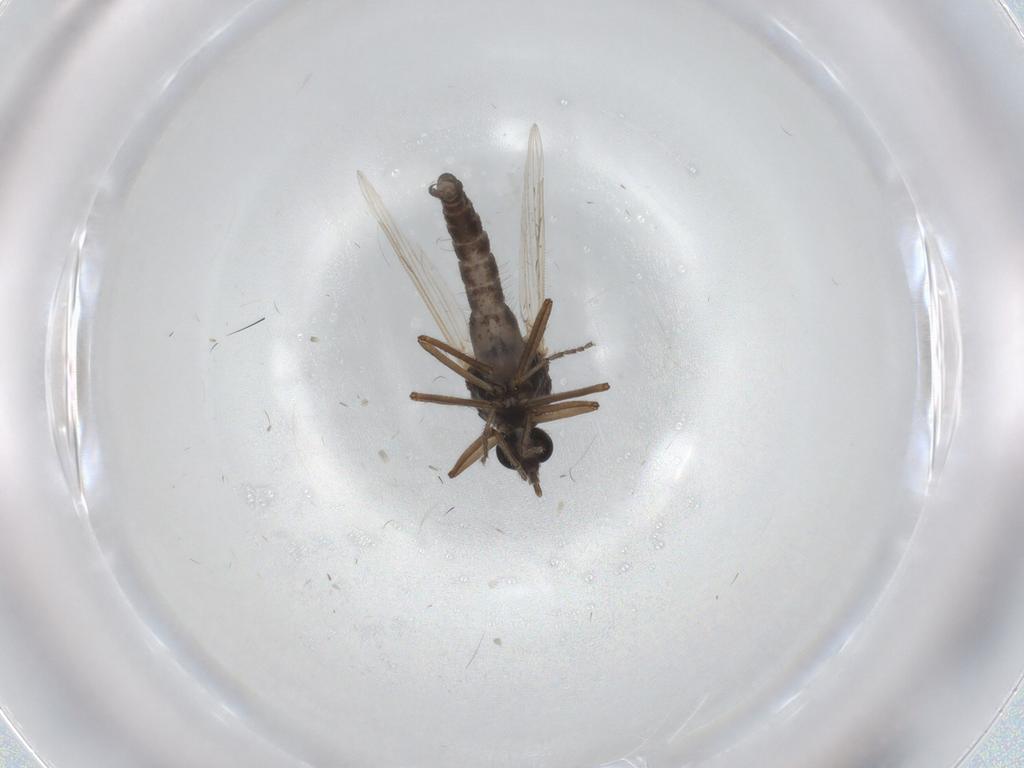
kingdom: Animalia
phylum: Arthropoda
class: Insecta
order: Diptera
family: Ceratopogonidae
